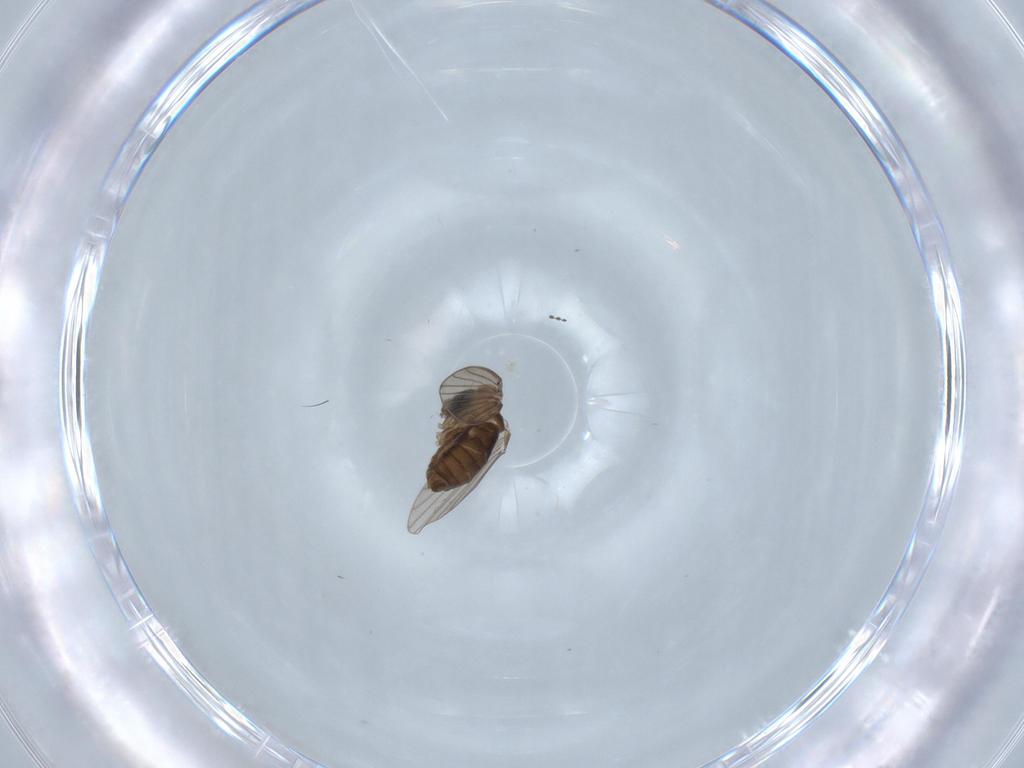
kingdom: Animalia
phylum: Arthropoda
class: Insecta
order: Diptera
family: Psychodidae
